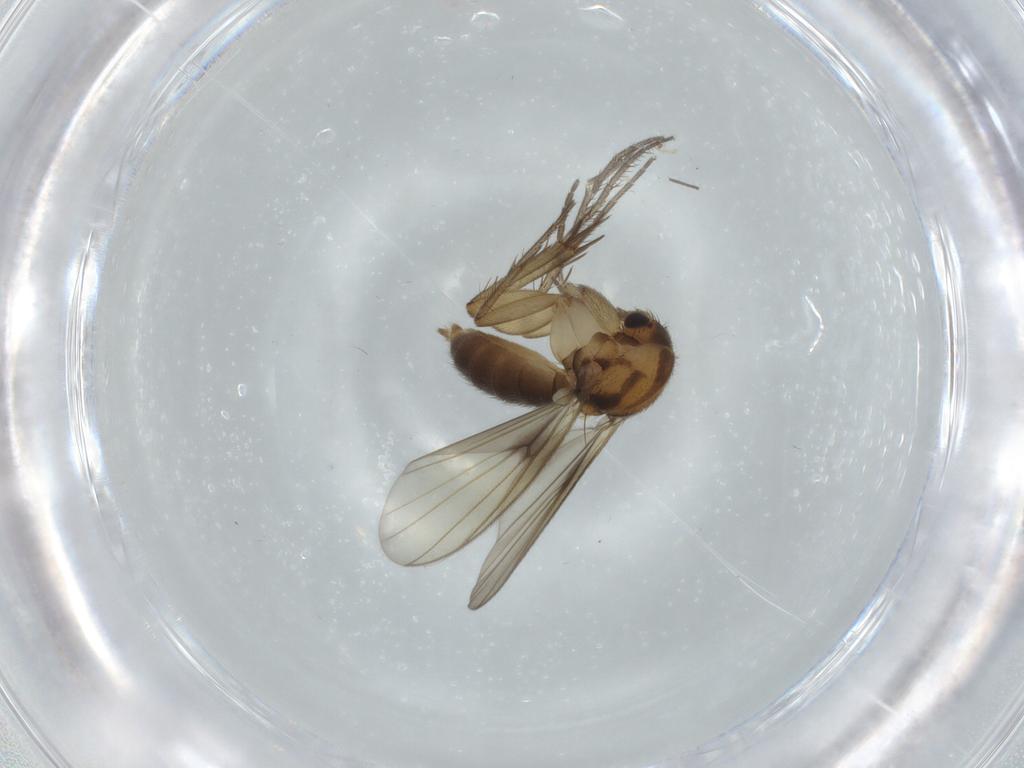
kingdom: Animalia
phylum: Arthropoda
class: Insecta
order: Diptera
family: Mycetophilidae
